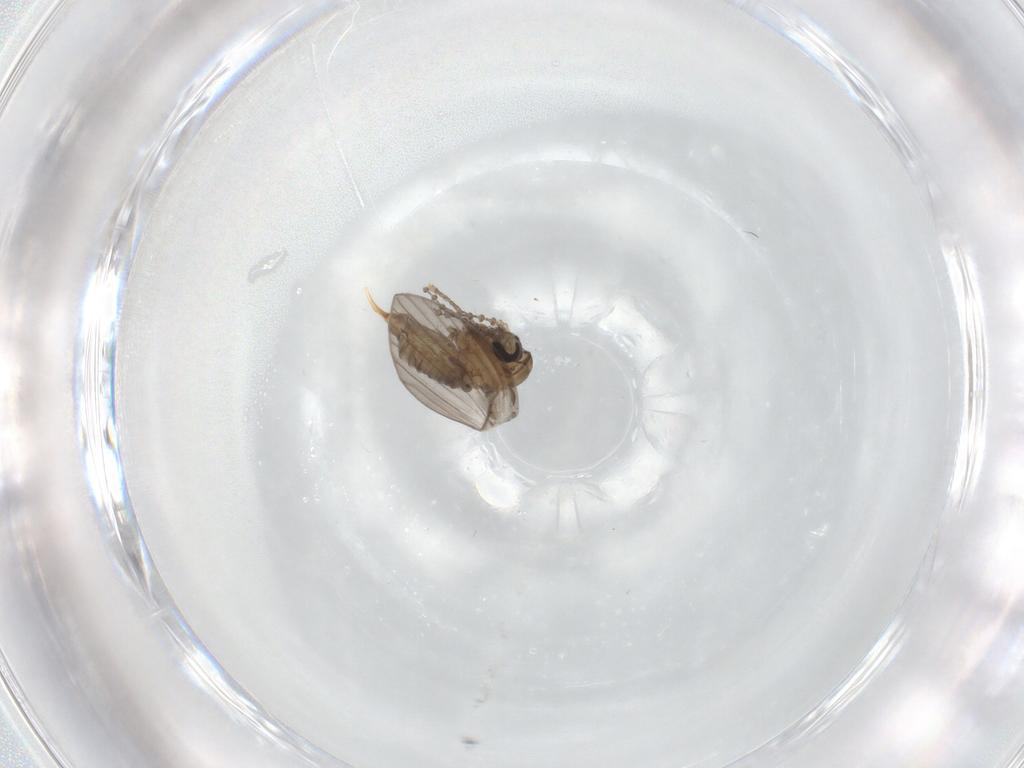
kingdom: Animalia
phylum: Arthropoda
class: Insecta
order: Diptera
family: Psychodidae
